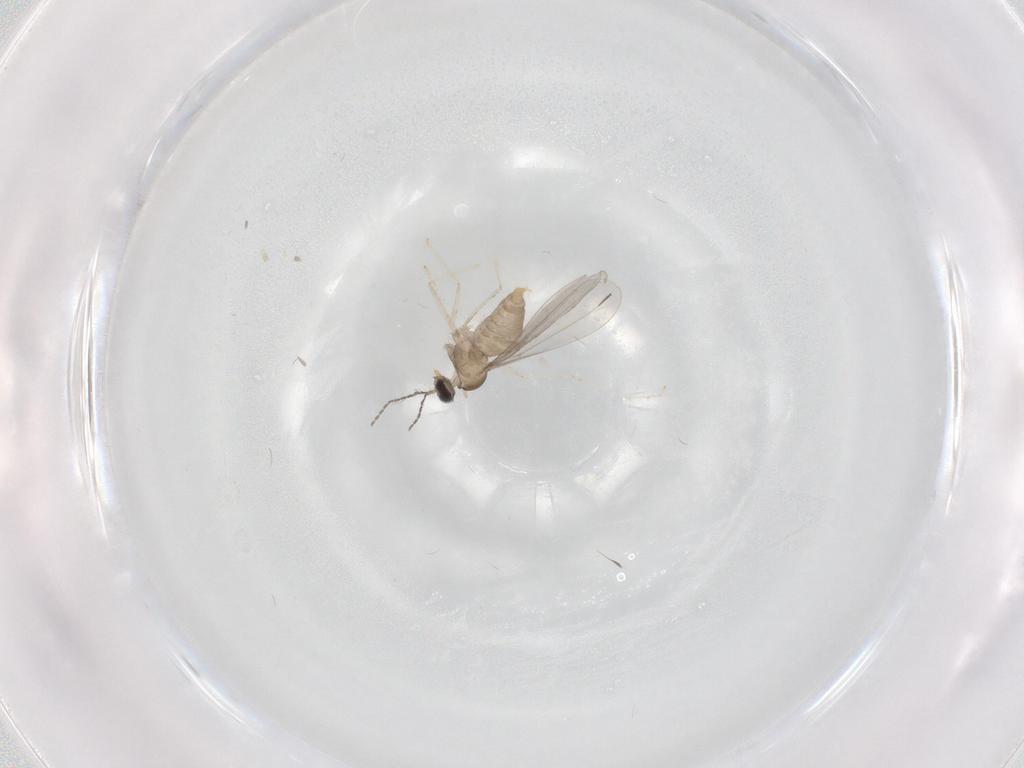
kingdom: Animalia
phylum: Arthropoda
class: Insecta
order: Diptera
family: Cecidomyiidae
